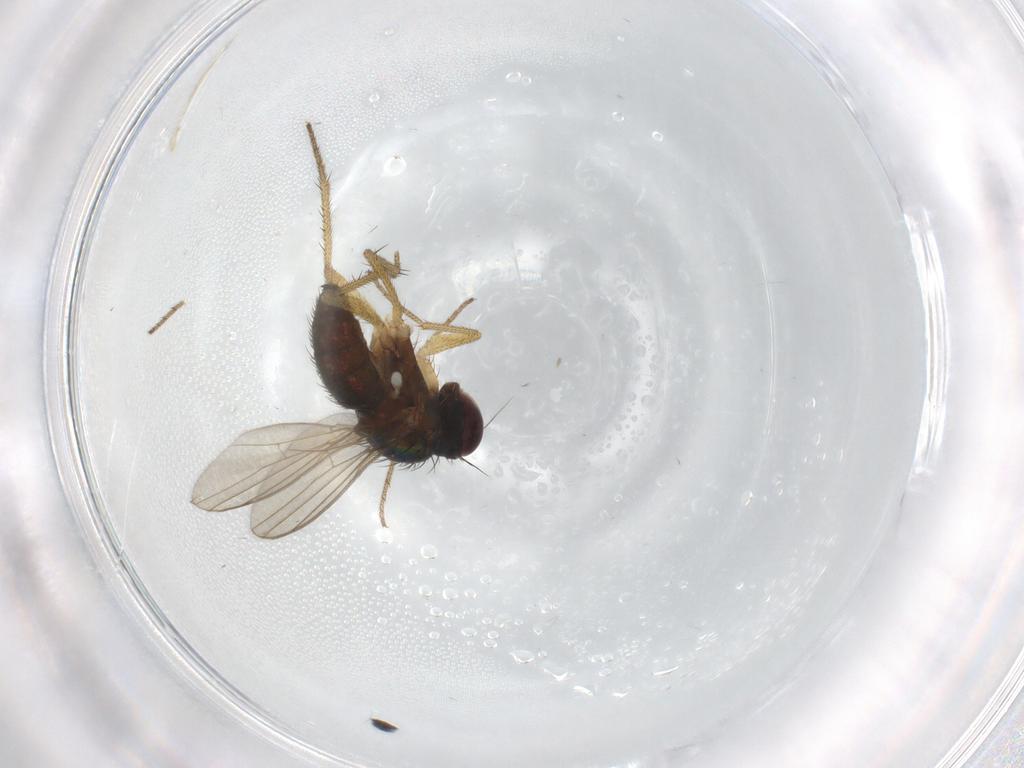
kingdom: Animalia
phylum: Arthropoda
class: Insecta
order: Diptera
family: Dolichopodidae
